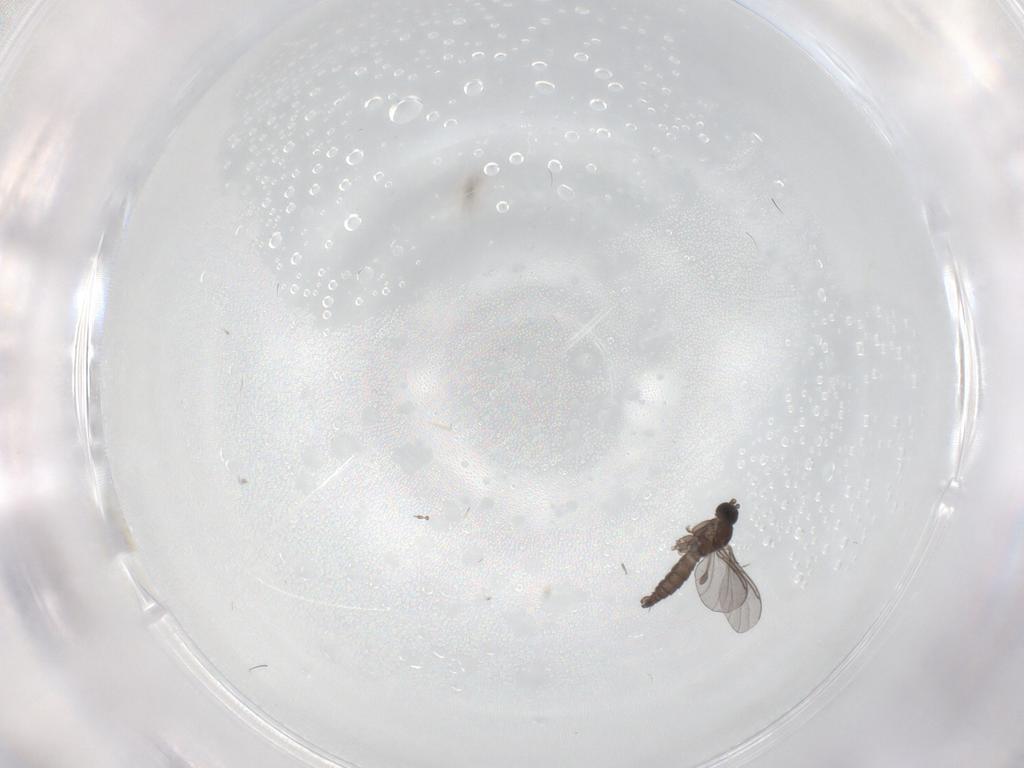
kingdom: Animalia
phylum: Arthropoda
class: Insecta
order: Diptera
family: Sciaridae
